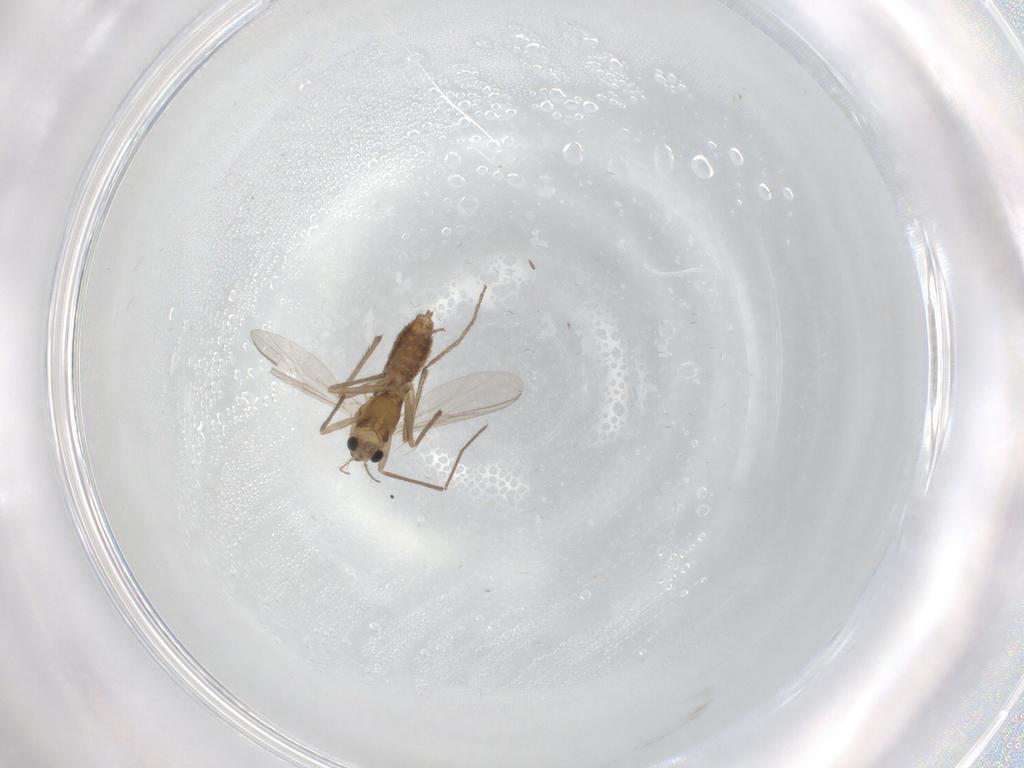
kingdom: Animalia
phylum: Arthropoda
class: Insecta
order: Diptera
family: Chironomidae
